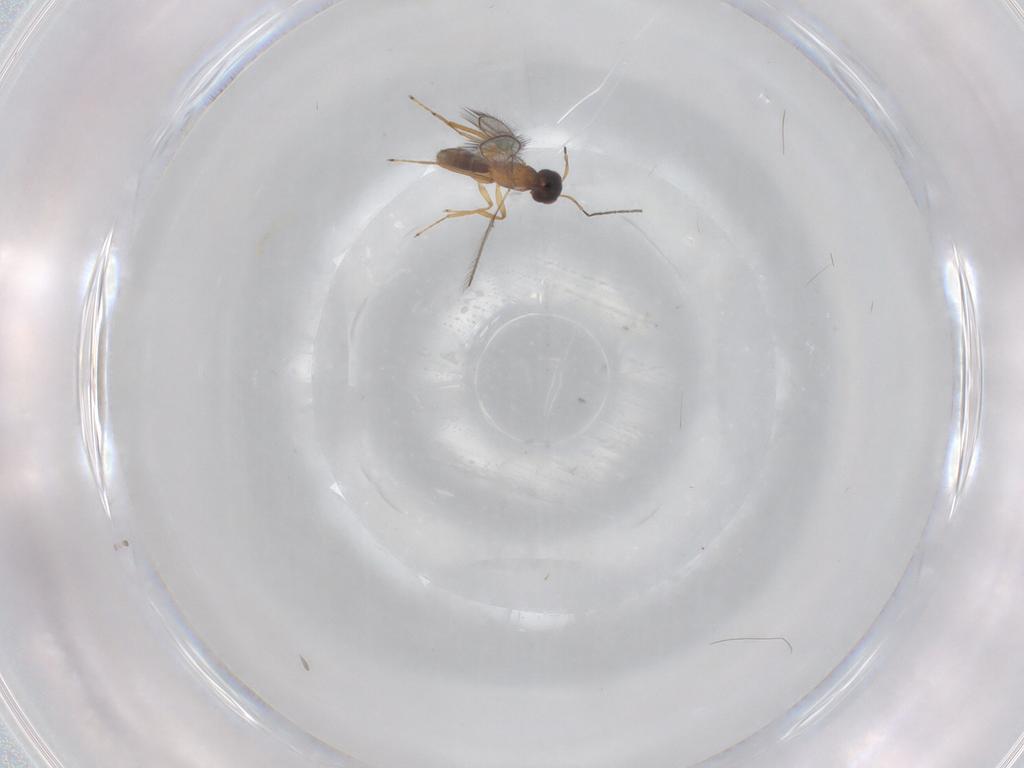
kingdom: Animalia
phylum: Arthropoda
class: Insecta
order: Hymenoptera
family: Mymaridae
